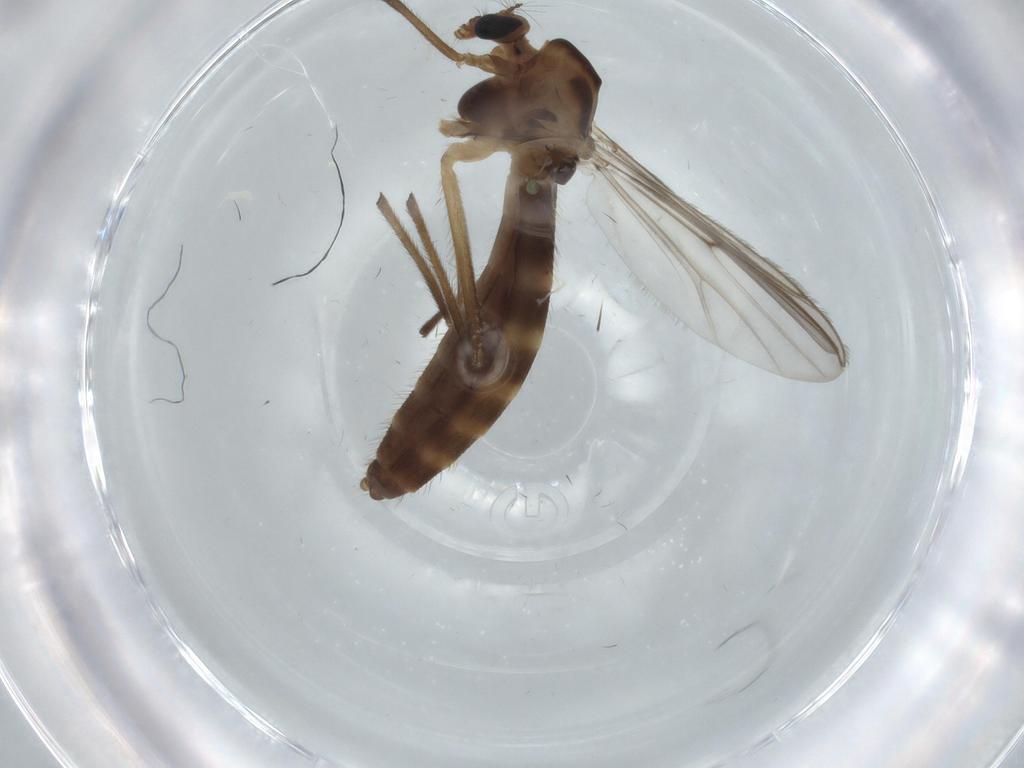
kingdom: Animalia
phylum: Arthropoda
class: Insecta
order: Diptera
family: Chironomidae
